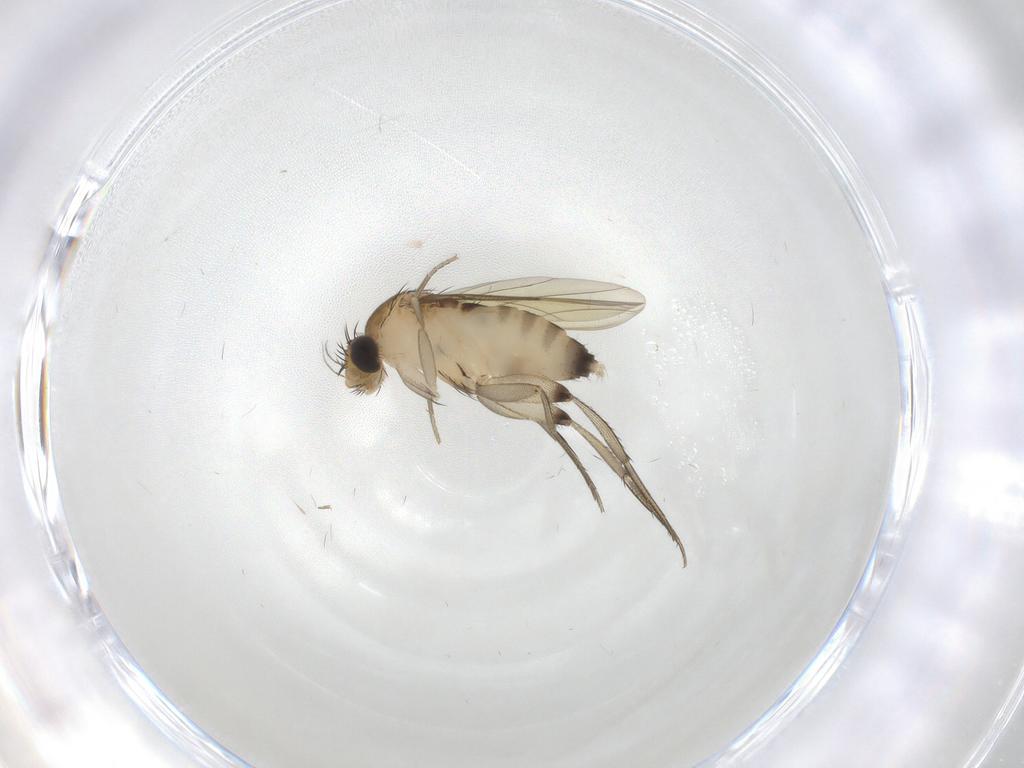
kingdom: Animalia
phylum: Arthropoda
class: Insecta
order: Diptera
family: Phoridae
